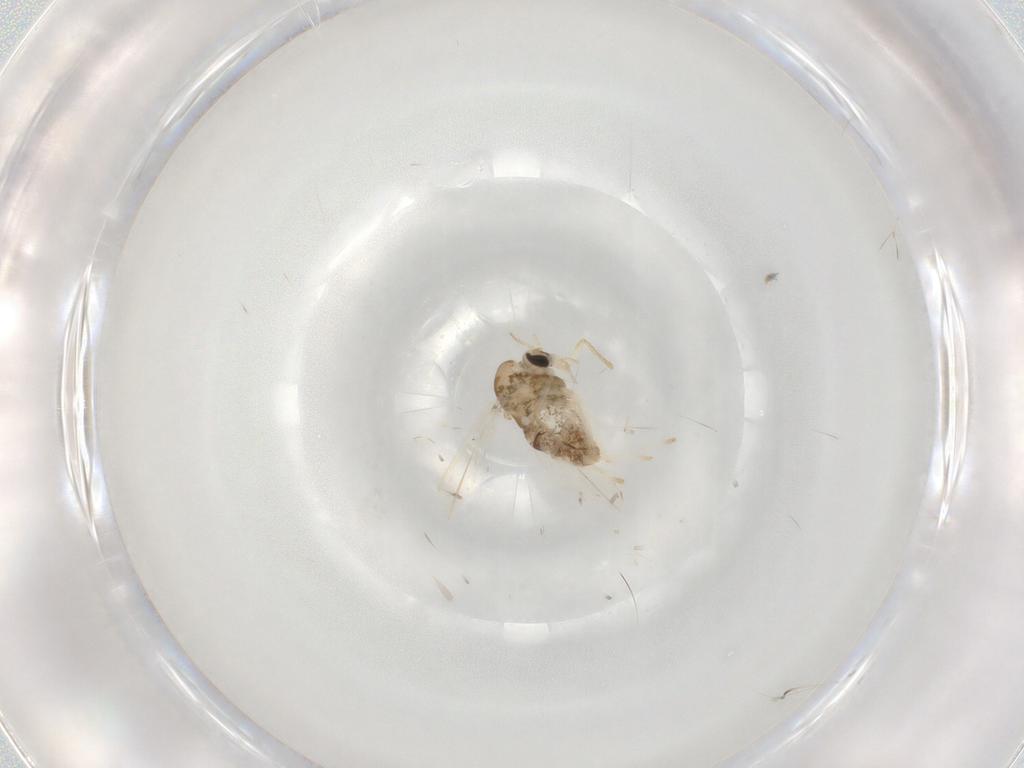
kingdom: Animalia
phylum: Arthropoda
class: Insecta
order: Diptera
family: Chironomidae
